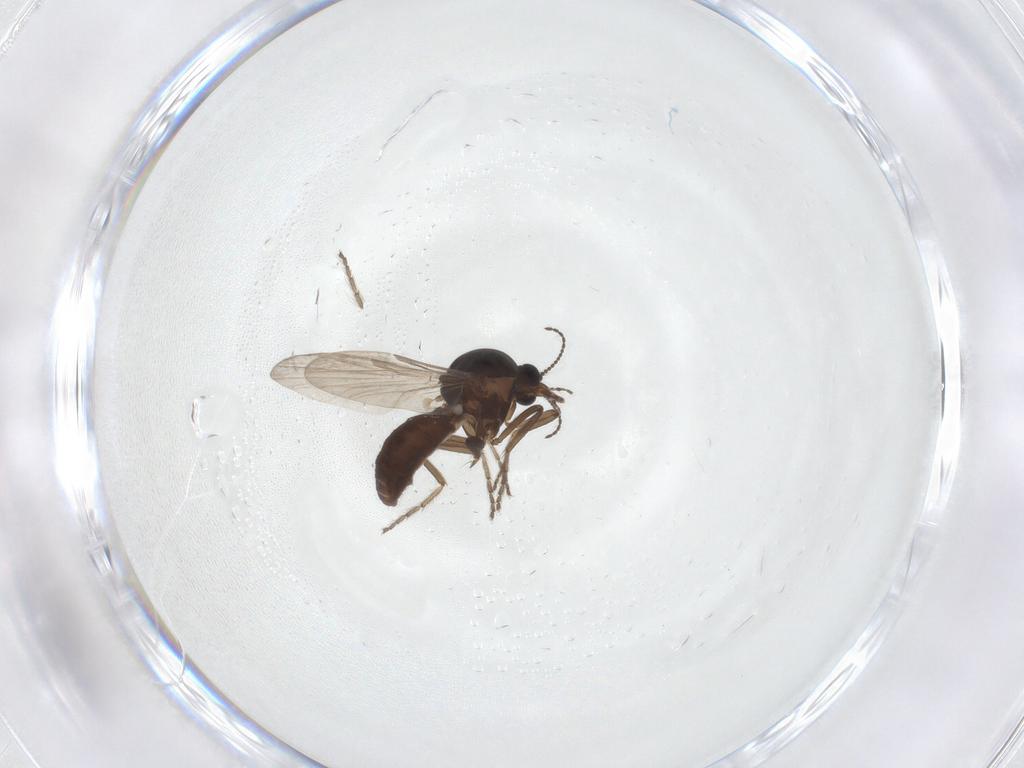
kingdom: Animalia
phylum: Arthropoda
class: Insecta
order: Diptera
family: Ceratopogonidae
